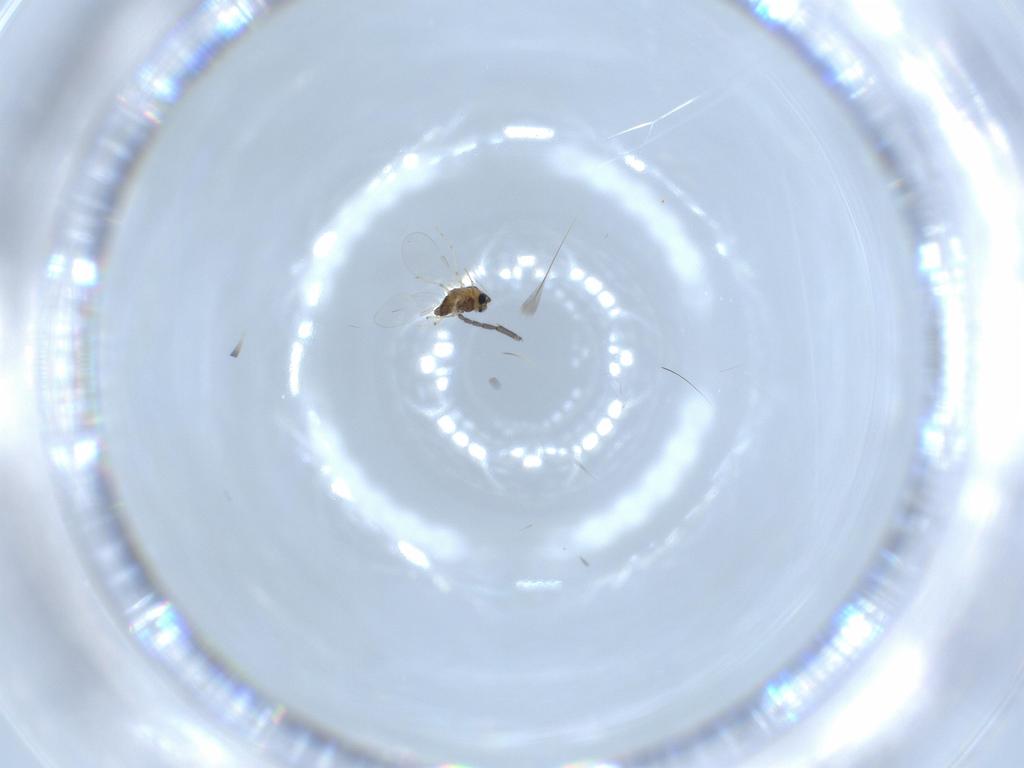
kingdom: Animalia
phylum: Arthropoda
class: Insecta
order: Diptera
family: Chironomidae
